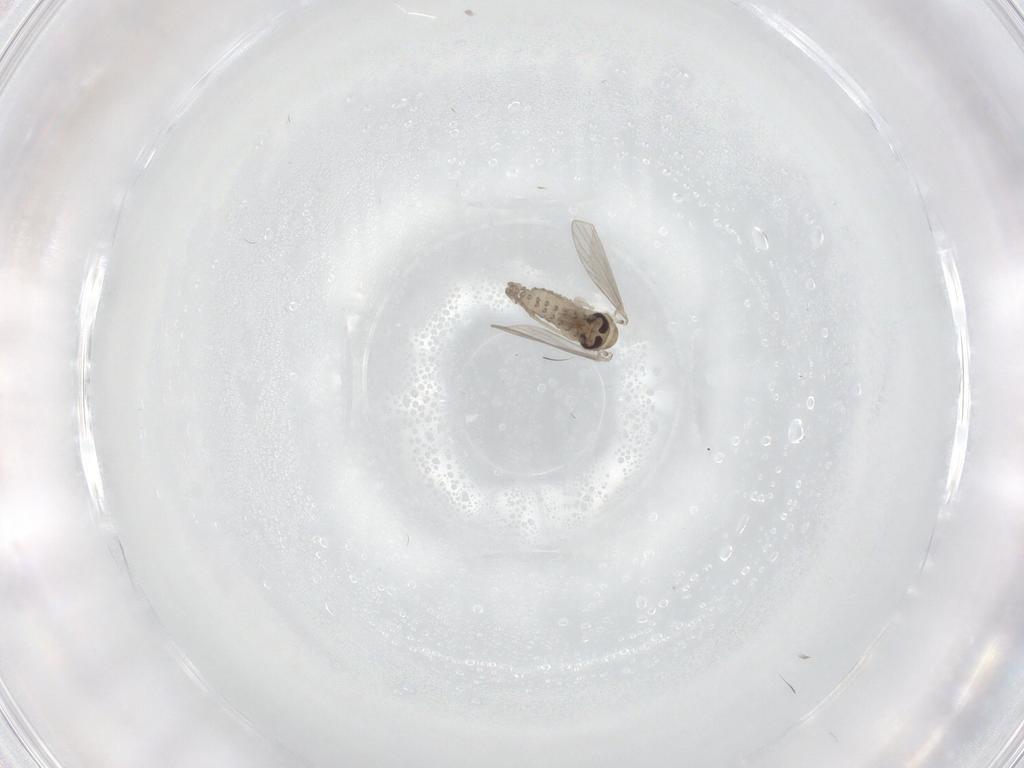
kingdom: Animalia
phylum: Arthropoda
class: Insecta
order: Diptera
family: Psychodidae
